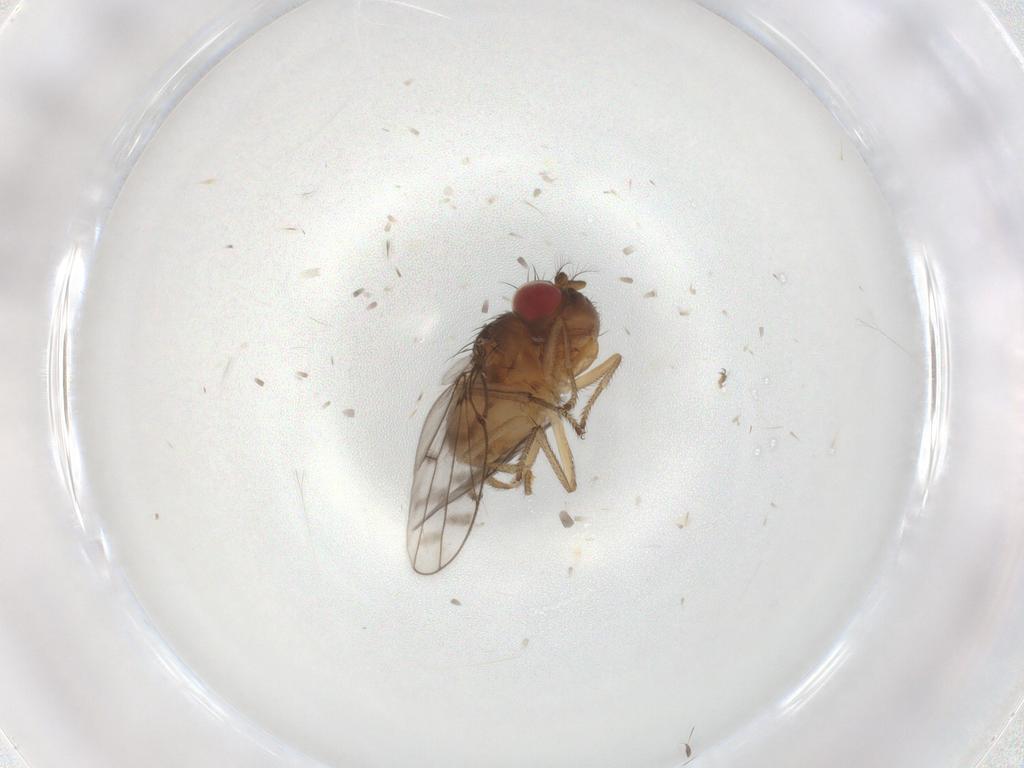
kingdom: Animalia
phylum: Arthropoda
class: Insecta
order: Diptera
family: Ephydridae
